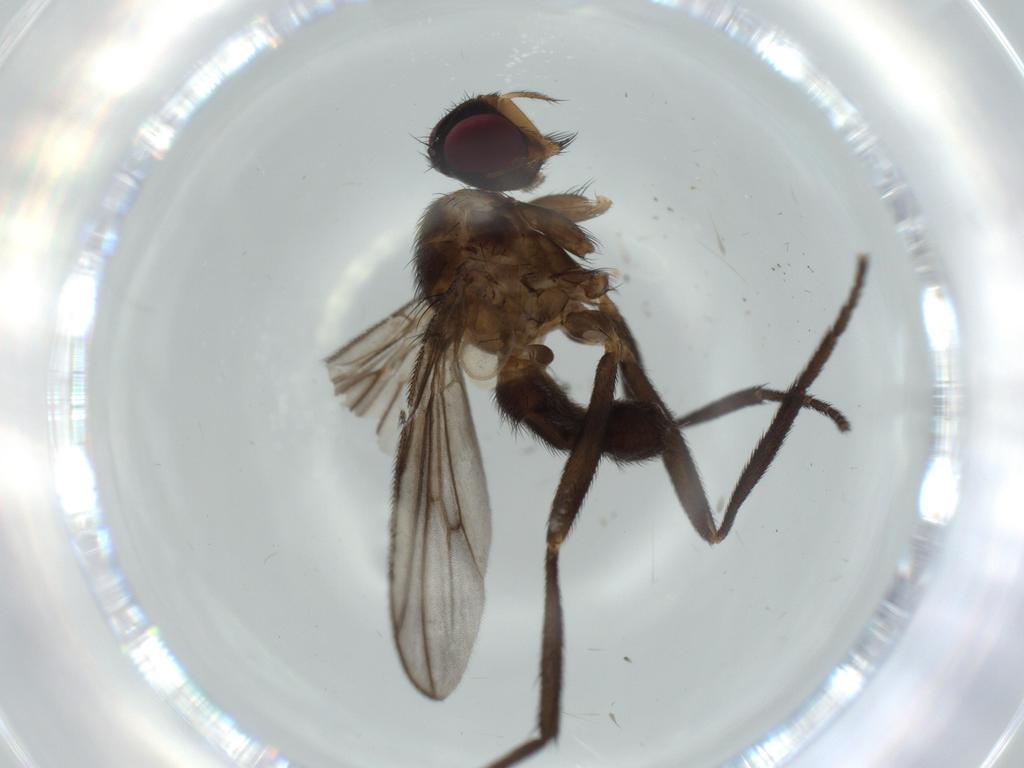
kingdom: Animalia
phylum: Arthropoda
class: Insecta
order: Diptera
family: Calliphoridae
